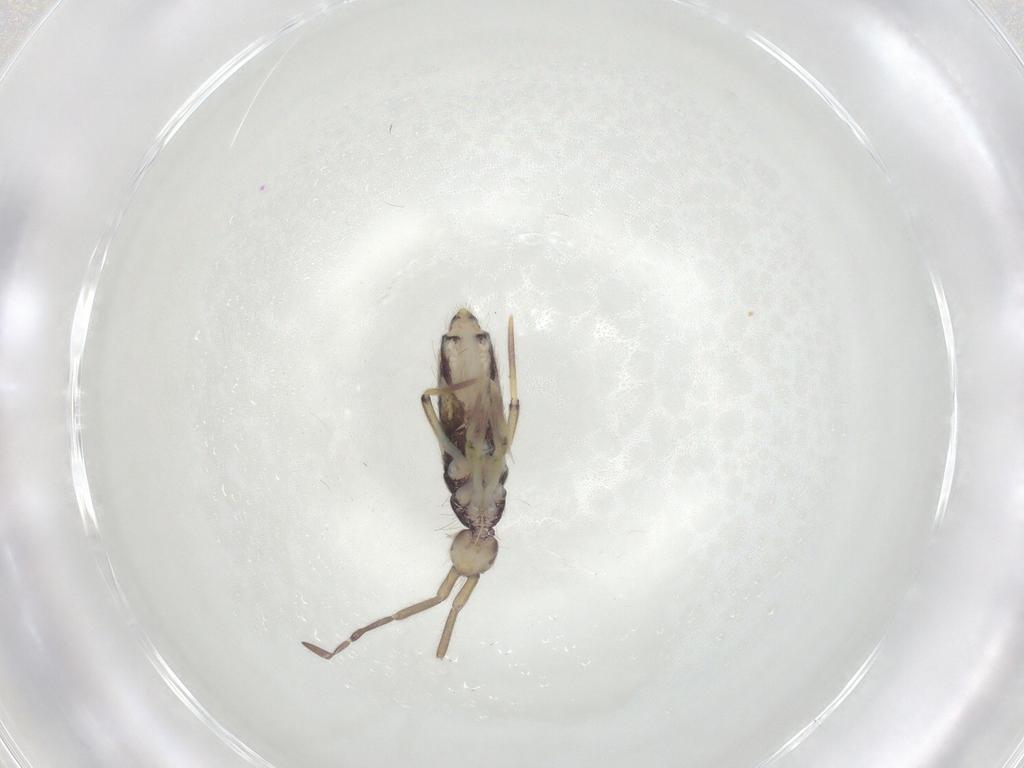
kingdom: Animalia
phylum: Arthropoda
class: Collembola
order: Entomobryomorpha
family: Entomobryidae
